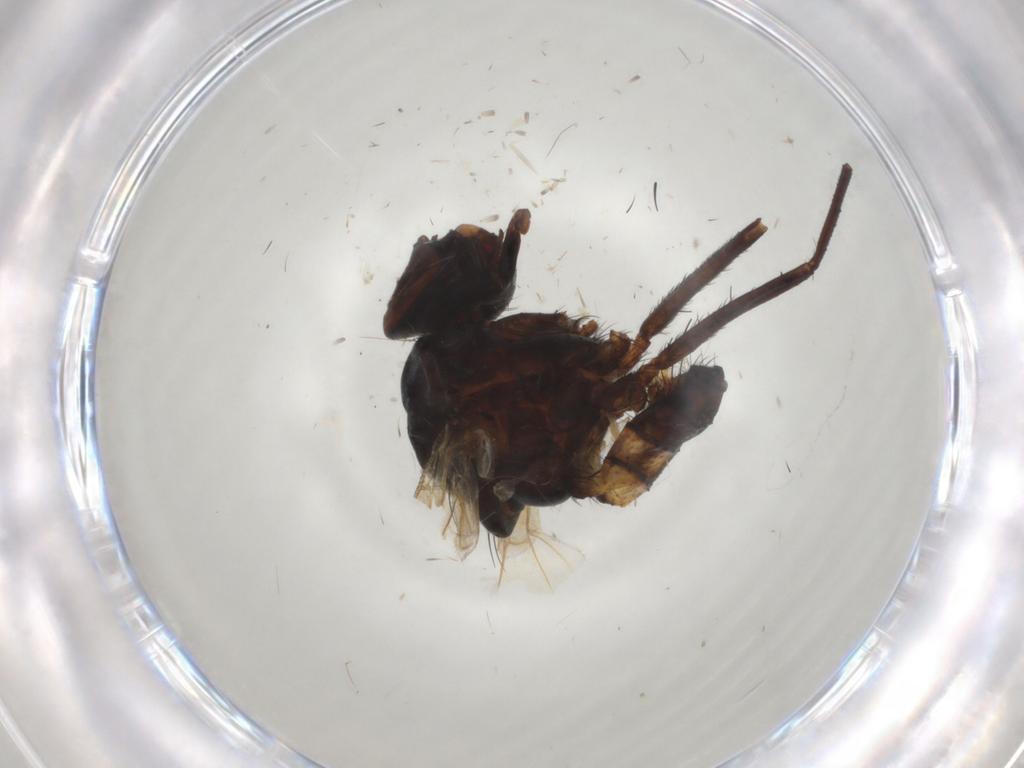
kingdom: Animalia
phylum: Arthropoda
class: Insecta
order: Diptera
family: Anthomyiidae
